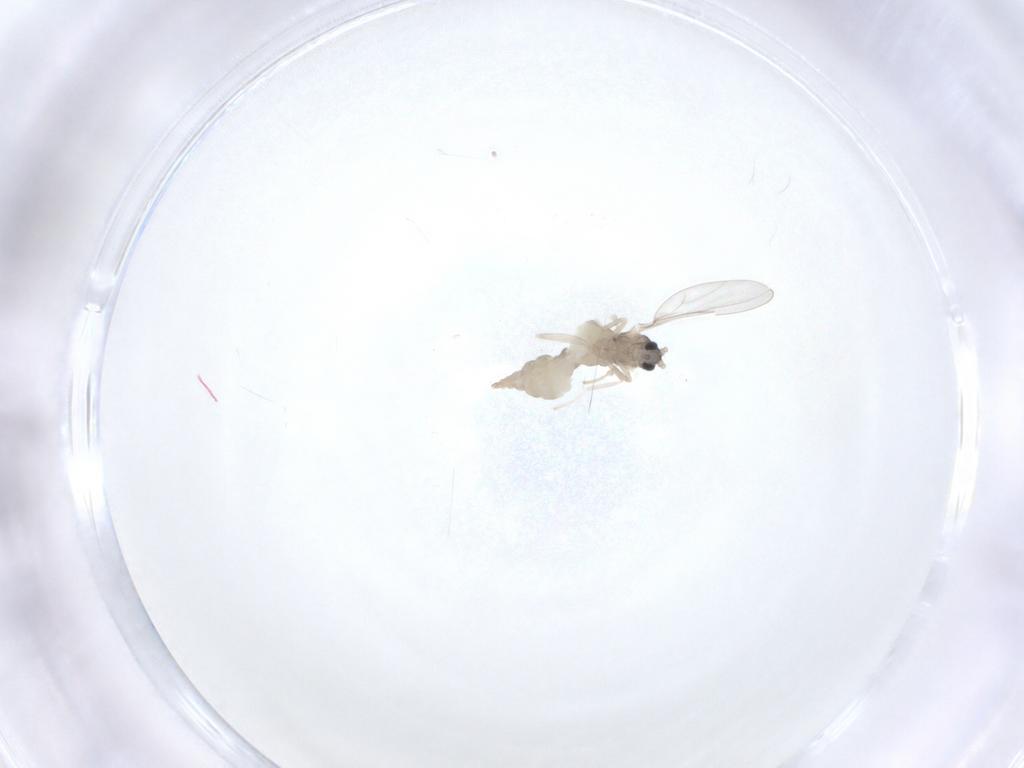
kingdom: Animalia
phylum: Arthropoda
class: Insecta
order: Diptera
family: Cecidomyiidae
